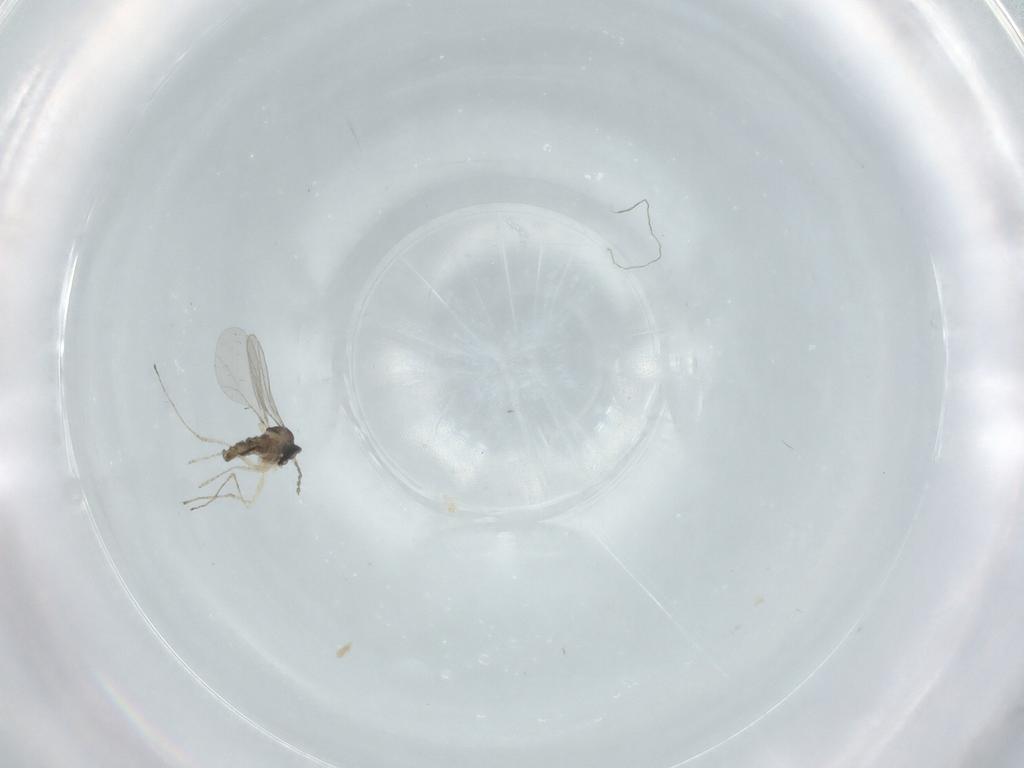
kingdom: Animalia
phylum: Arthropoda
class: Insecta
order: Diptera
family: Cecidomyiidae
